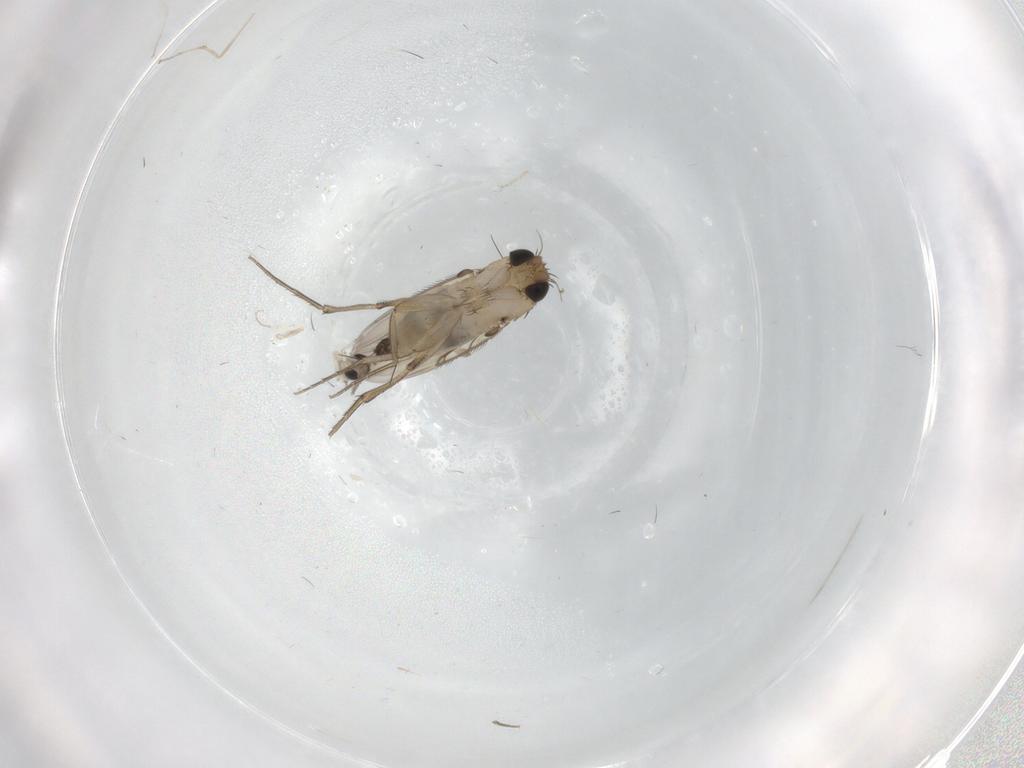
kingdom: Animalia
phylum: Arthropoda
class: Insecta
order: Diptera
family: Phoridae
